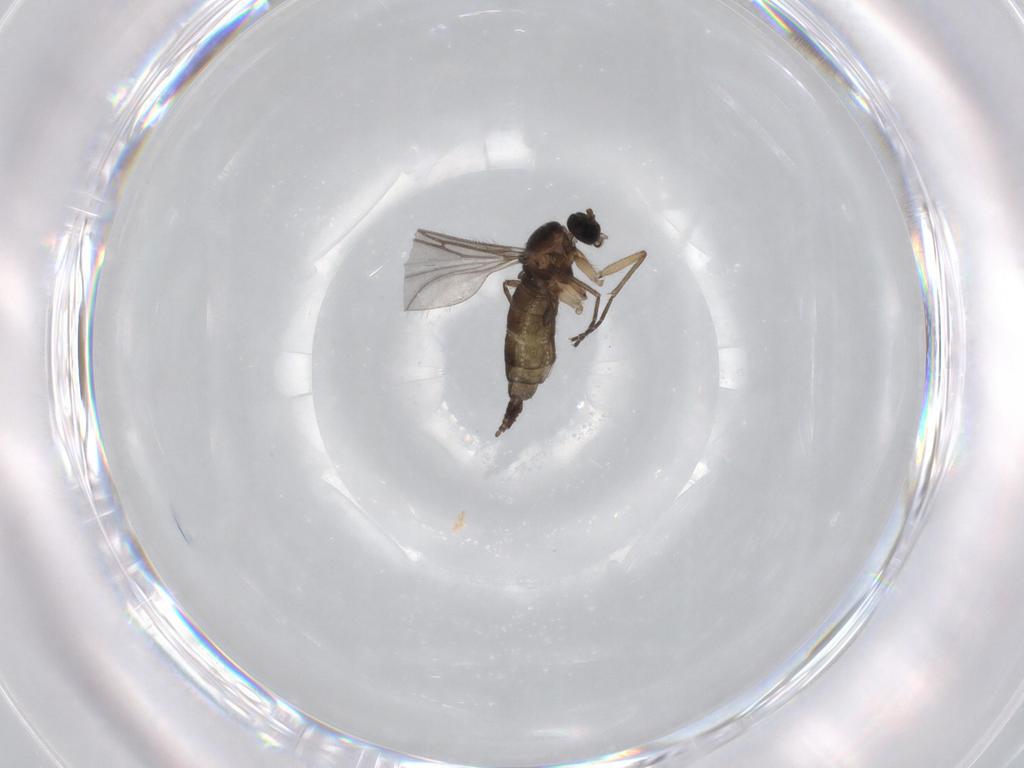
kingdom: Animalia
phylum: Arthropoda
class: Insecta
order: Diptera
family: Sciaridae
